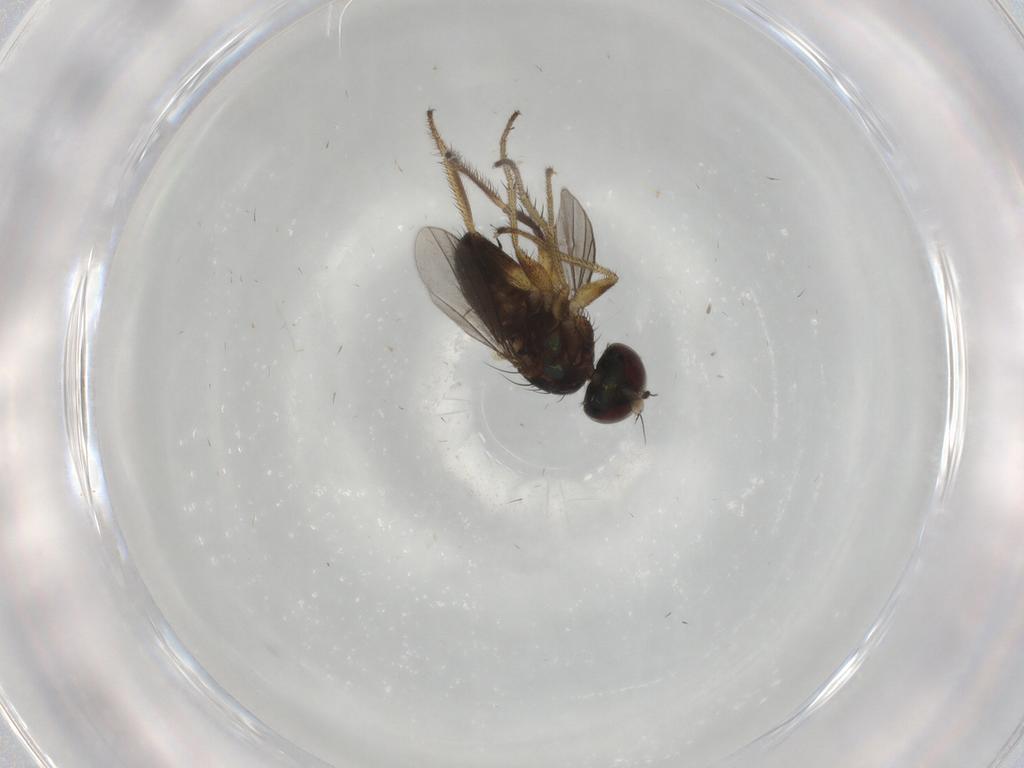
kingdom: Animalia
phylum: Arthropoda
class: Insecta
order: Diptera
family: Dolichopodidae
